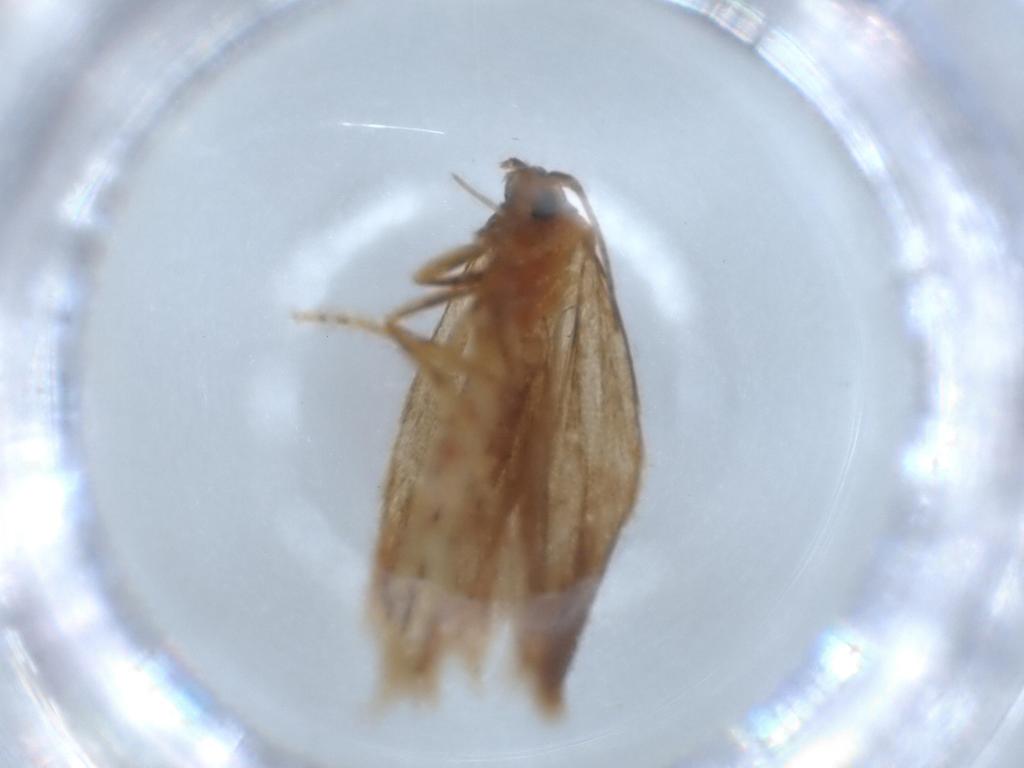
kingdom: Animalia
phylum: Arthropoda
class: Insecta
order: Lepidoptera
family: Roeslerstammiidae
